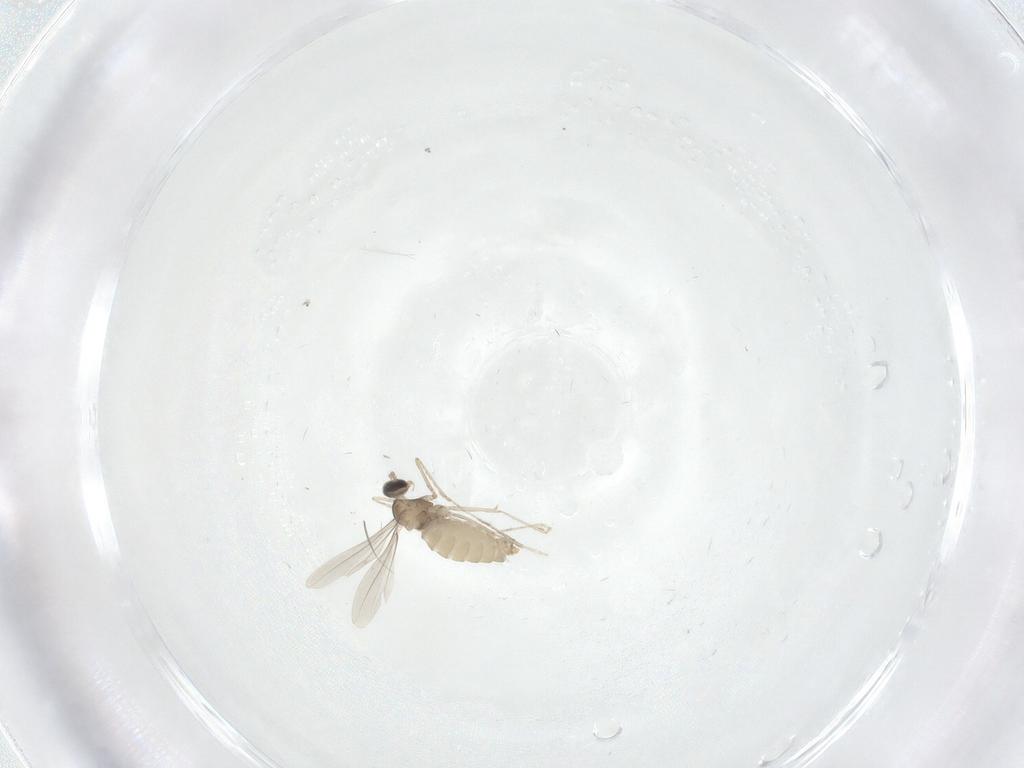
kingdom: Animalia
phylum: Arthropoda
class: Insecta
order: Diptera
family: Cecidomyiidae
